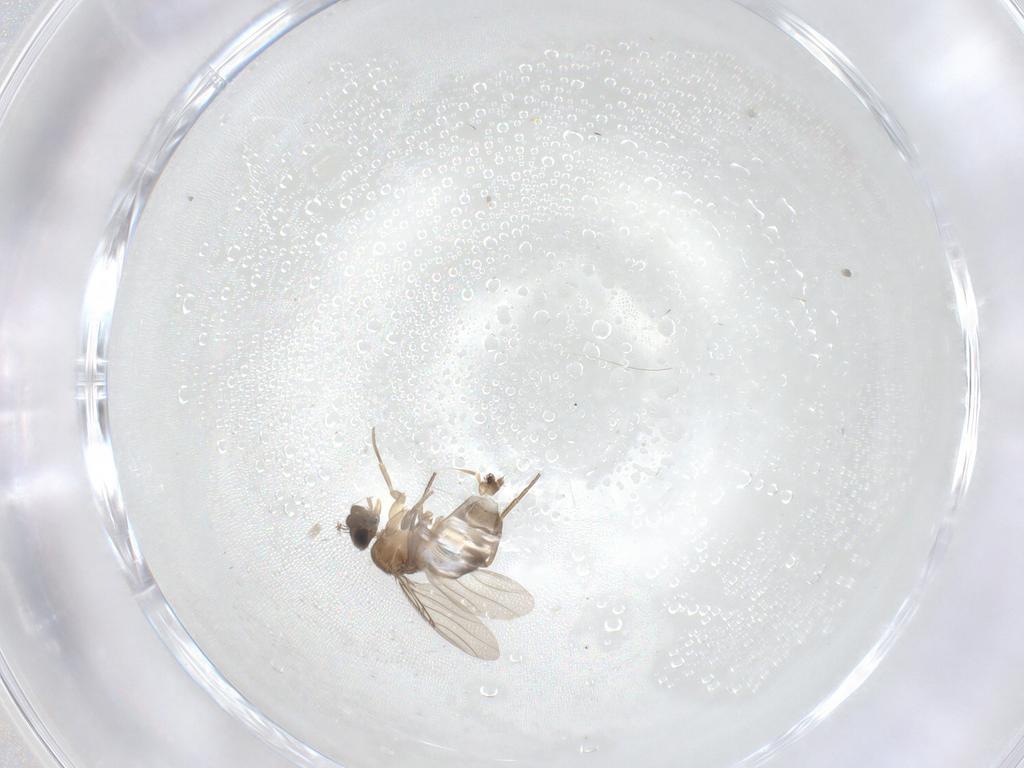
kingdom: Animalia
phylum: Arthropoda
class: Insecta
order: Diptera
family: Phoridae
